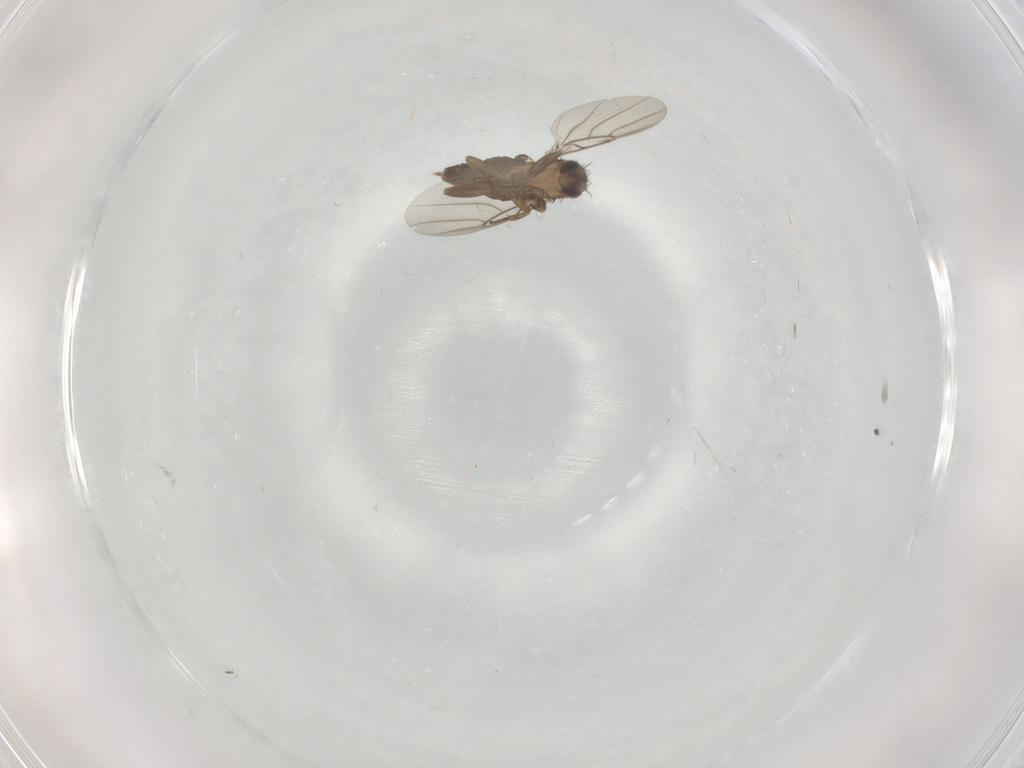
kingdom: Animalia
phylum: Arthropoda
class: Insecta
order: Diptera
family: Phoridae
